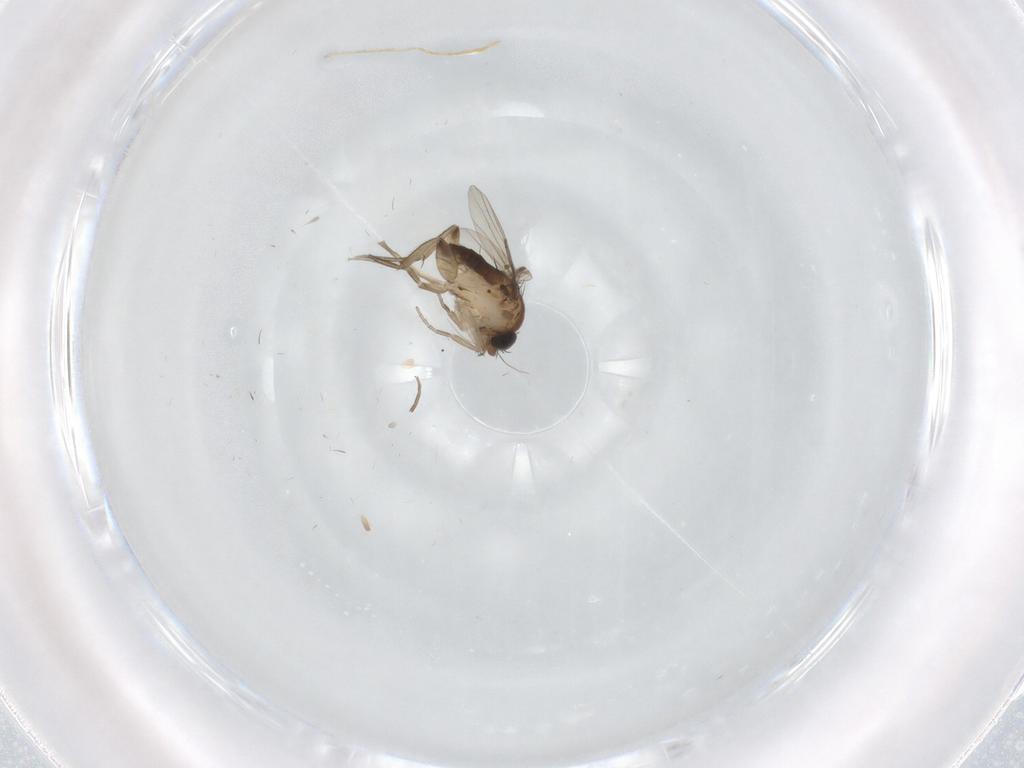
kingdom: Animalia
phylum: Arthropoda
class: Insecta
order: Diptera
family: Phoridae
